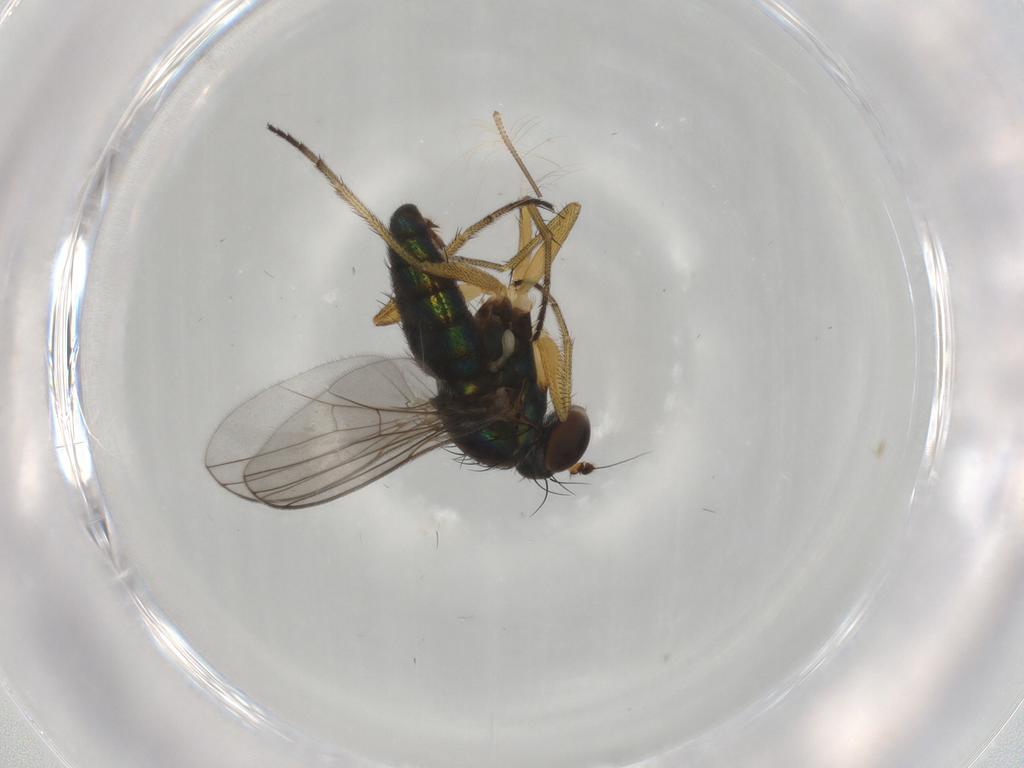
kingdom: Animalia
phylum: Arthropoda
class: Insecta
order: Diptera
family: Dolichopodidae
